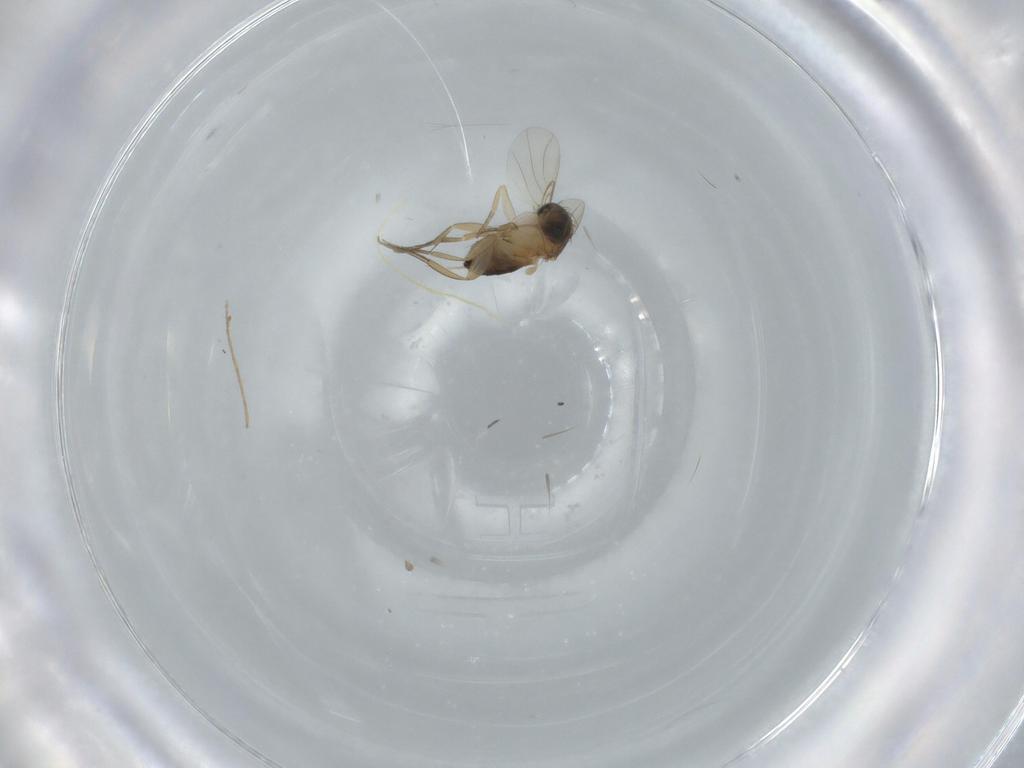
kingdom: Animalia
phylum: Arthropoda
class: Insecta
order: Diptera
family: Phoridae
